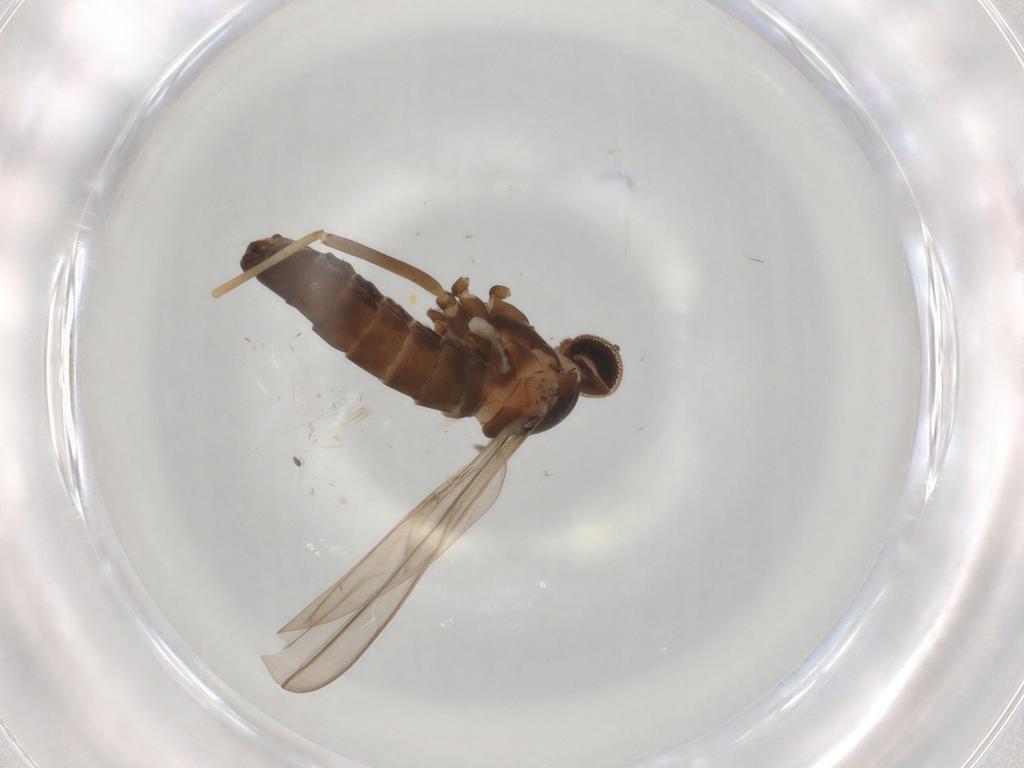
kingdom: Animalia
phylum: Arthropoda
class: Insecta
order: Diptera
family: Cecidomyiidae
